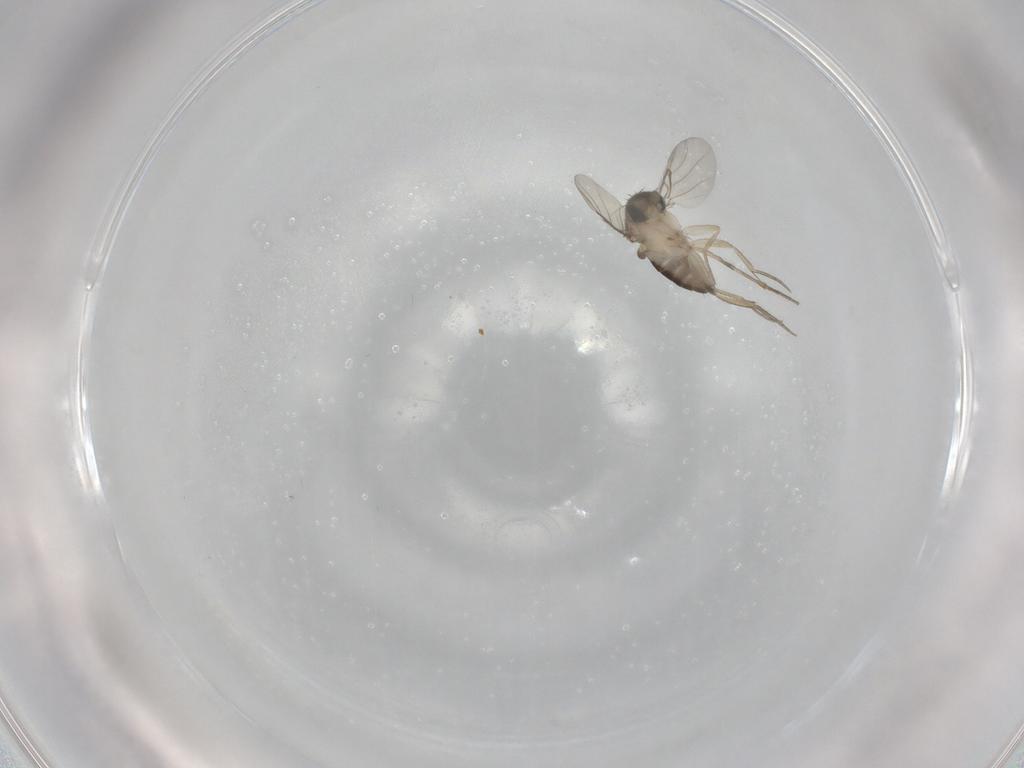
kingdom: Animalia
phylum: Arthropoda
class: Insecta
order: Diptera
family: Phoridae
